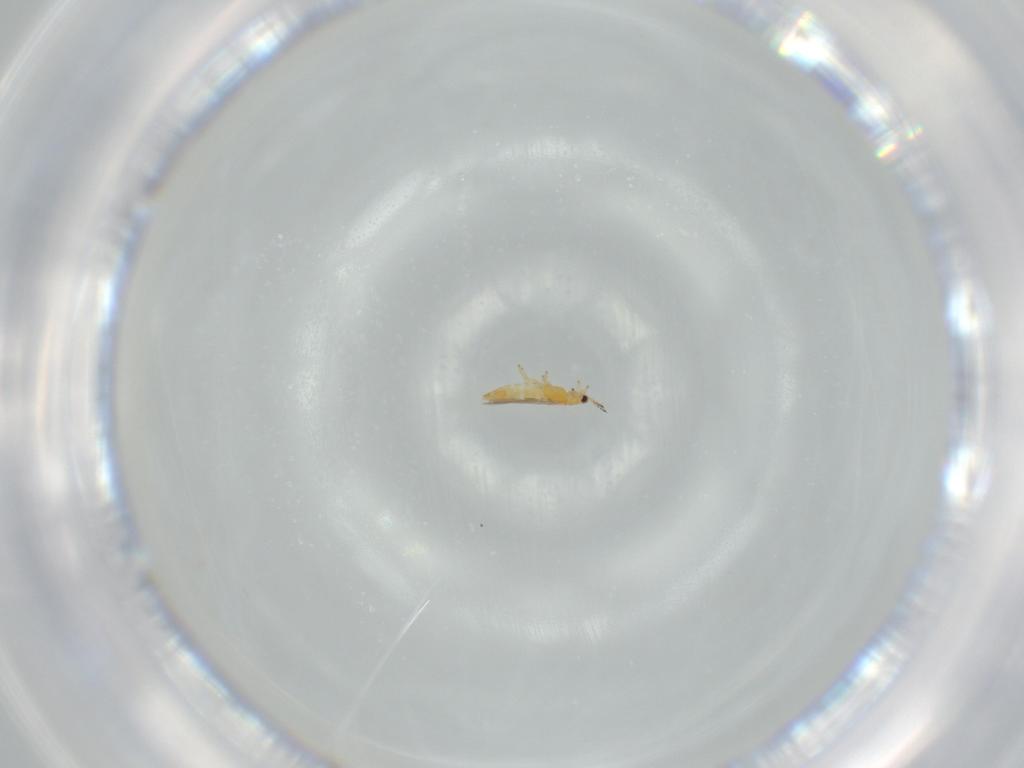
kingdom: Animalia
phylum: Arthropoda
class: Insecta
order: Thysanoptera
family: Thripidae
